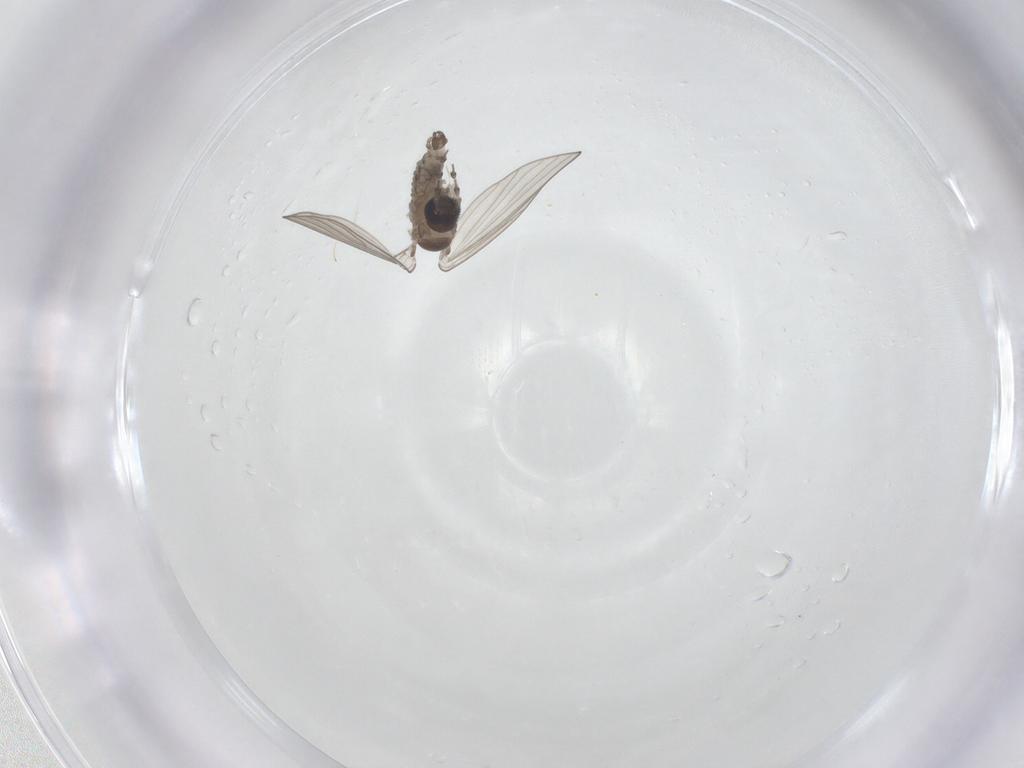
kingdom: Animalia
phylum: Arthropoda
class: Insecta
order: Diptera
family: Psychodidae
